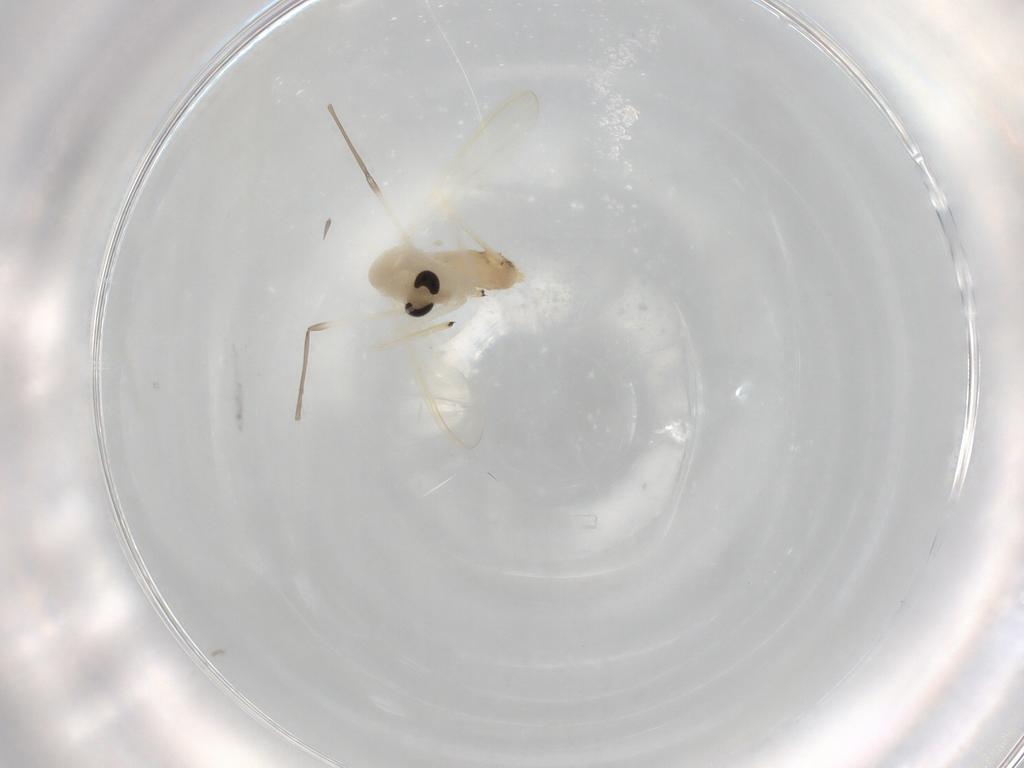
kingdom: Animalia
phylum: Arthropoda
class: Insecta
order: Diptera
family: Chironomidae
